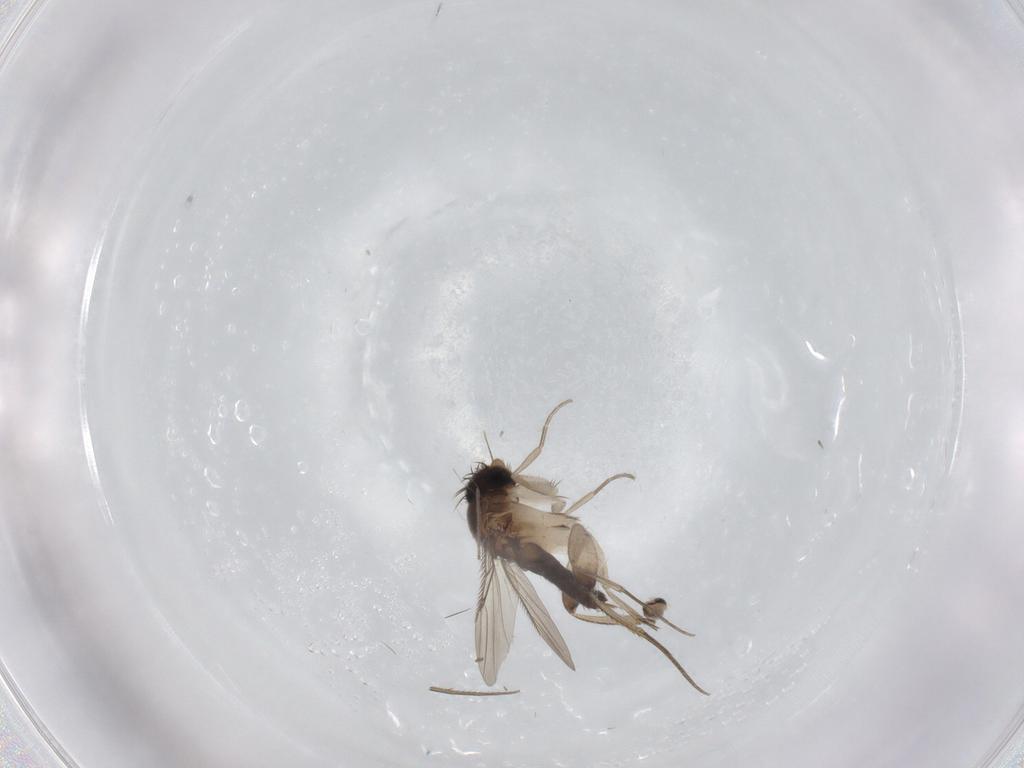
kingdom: Animalia
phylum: Arthropoda
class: Insecta
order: Diptera
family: Phoridae
